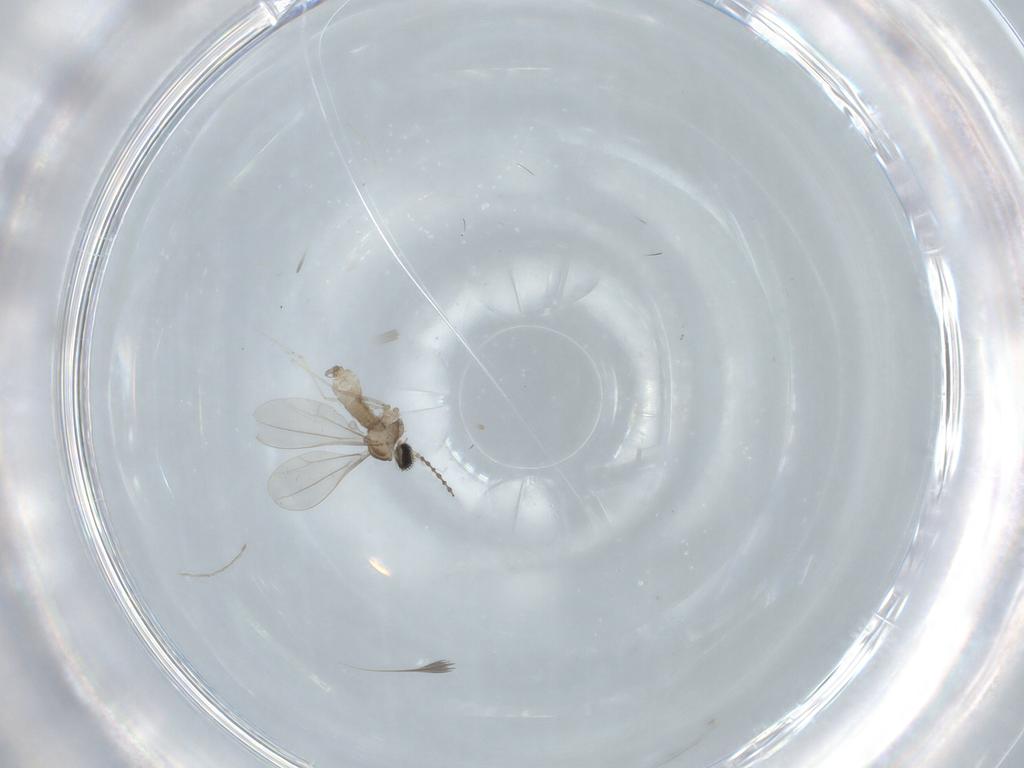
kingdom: Animalia
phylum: Arthropoda
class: Insecta
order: Diptera
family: Cecidomyiidae
